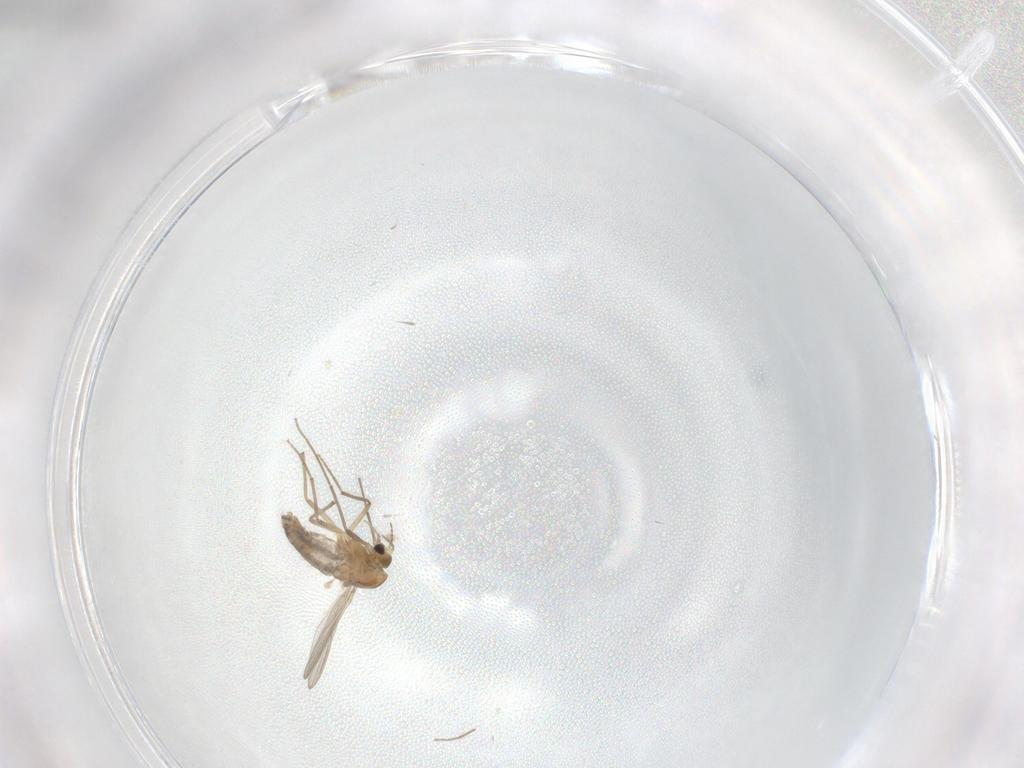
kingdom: Animalia
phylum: Arthropoda
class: Insecta
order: Diptera
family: Chironomidae
